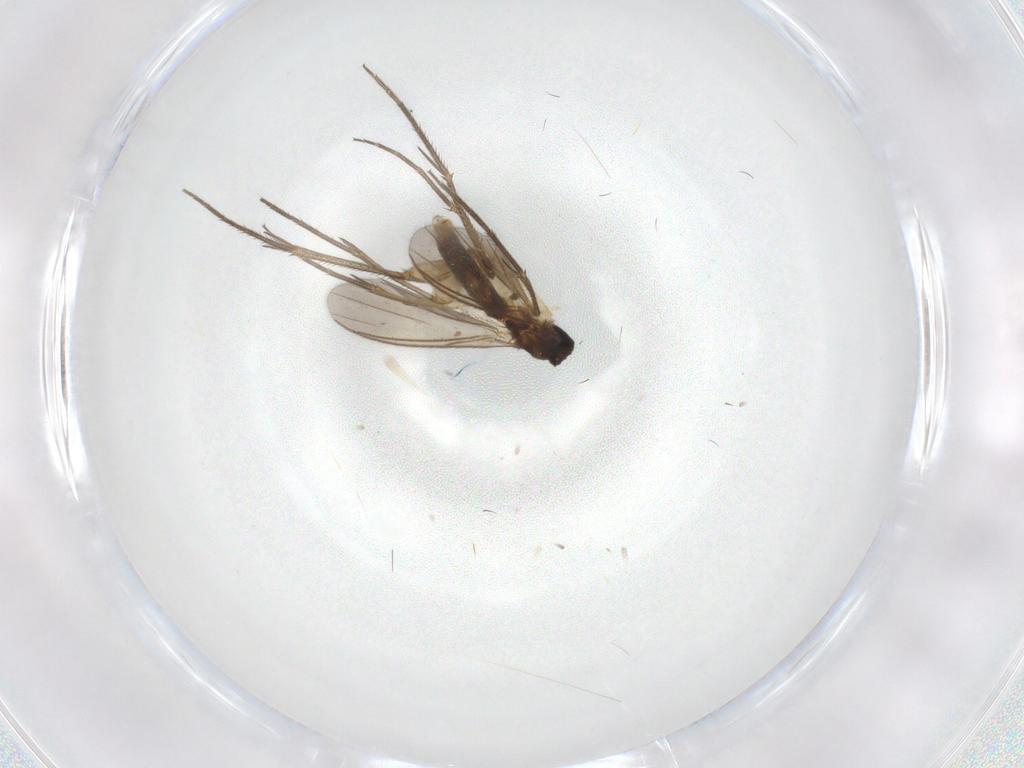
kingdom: Animalia
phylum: Arthropoda
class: Insecta
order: Diptera
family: Mycetophilidae
